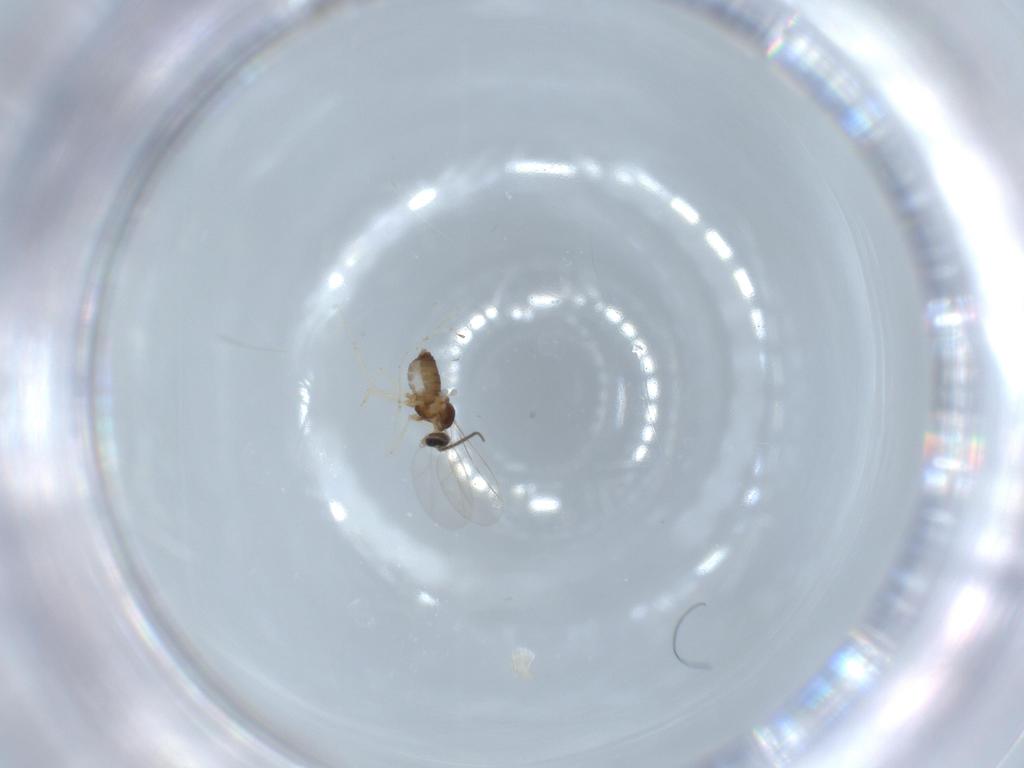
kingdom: Animalia
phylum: Arthropoda
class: Insecta
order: Diptera
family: Cecidomyiidae
